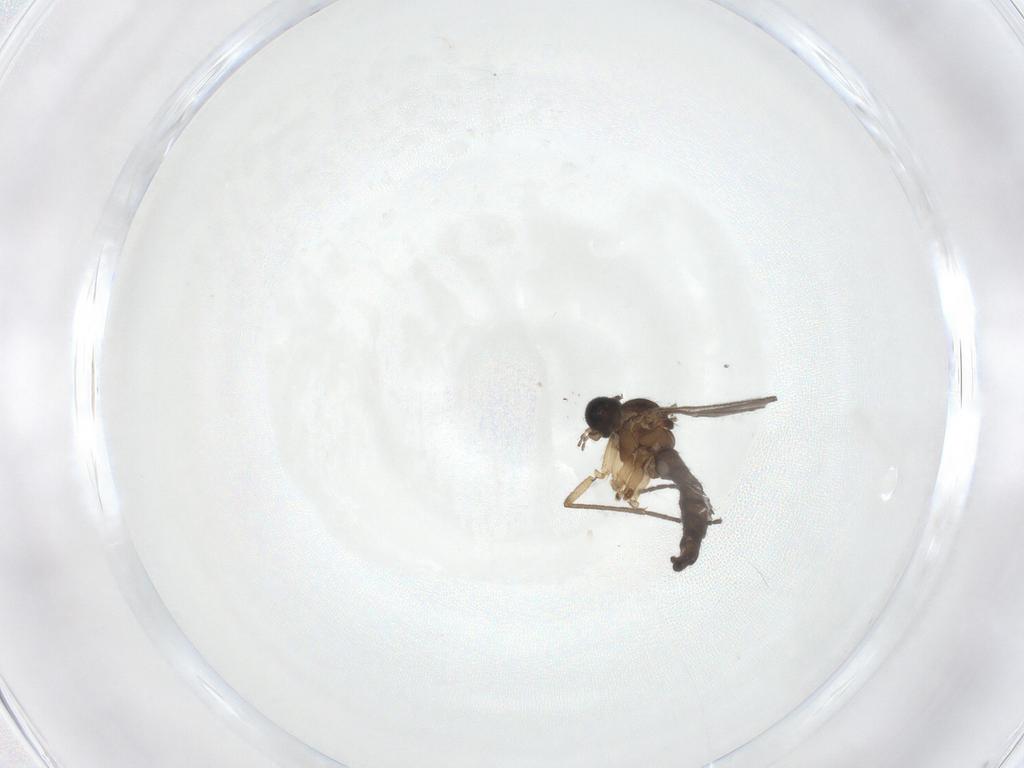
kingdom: Animalia
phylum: Arthropoda
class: Insecta
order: Diptera
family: Sciaridae
